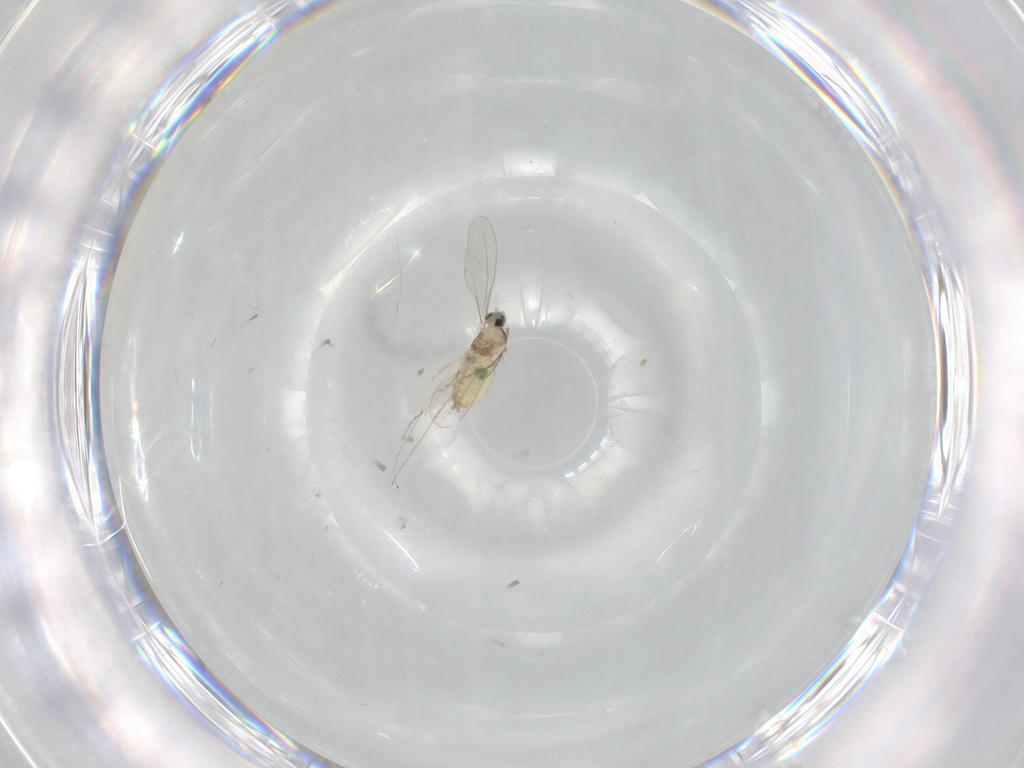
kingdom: Animalia
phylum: Arthropoda
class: Insecta
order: Diptera
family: Cecidomyiidae
